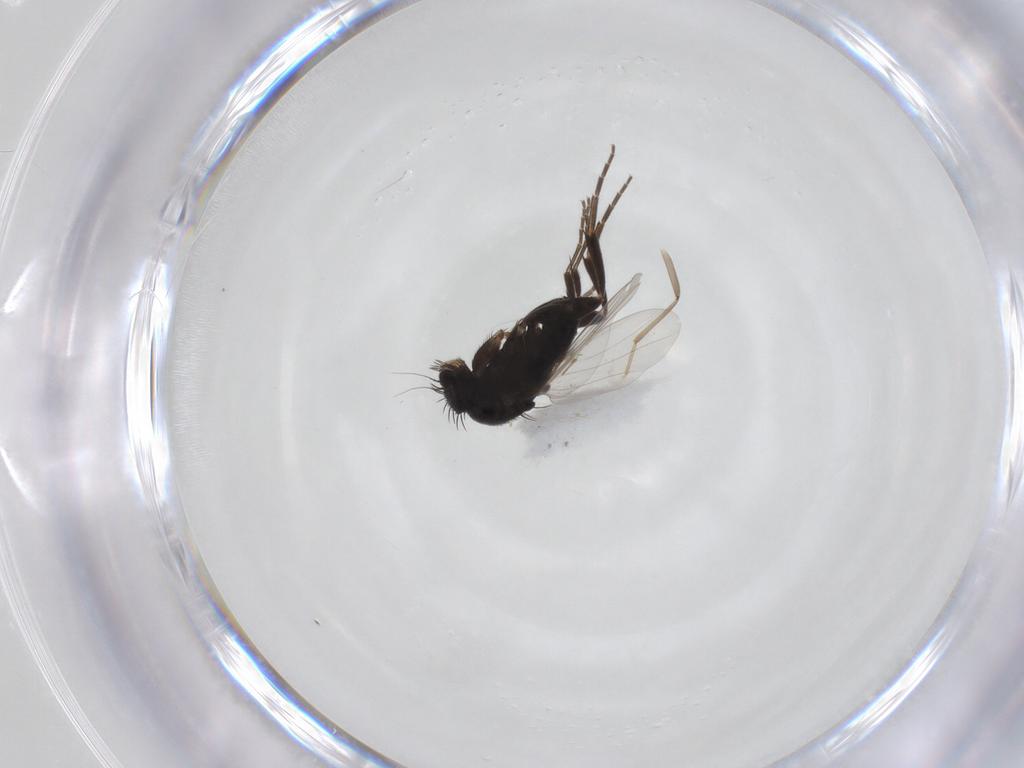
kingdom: Animalia
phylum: Arthropoda
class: Insecta
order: Diptera
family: Phoridae
